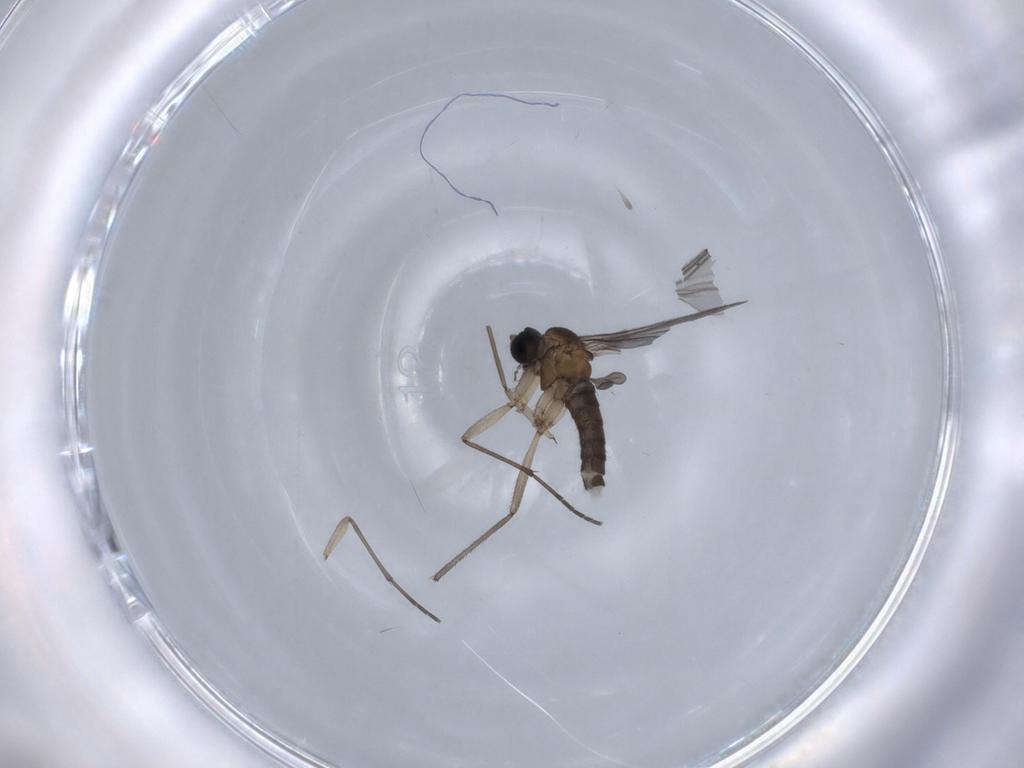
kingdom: Animalia
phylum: Arthropoda
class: Insecta
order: Diptera
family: Sciaridae
